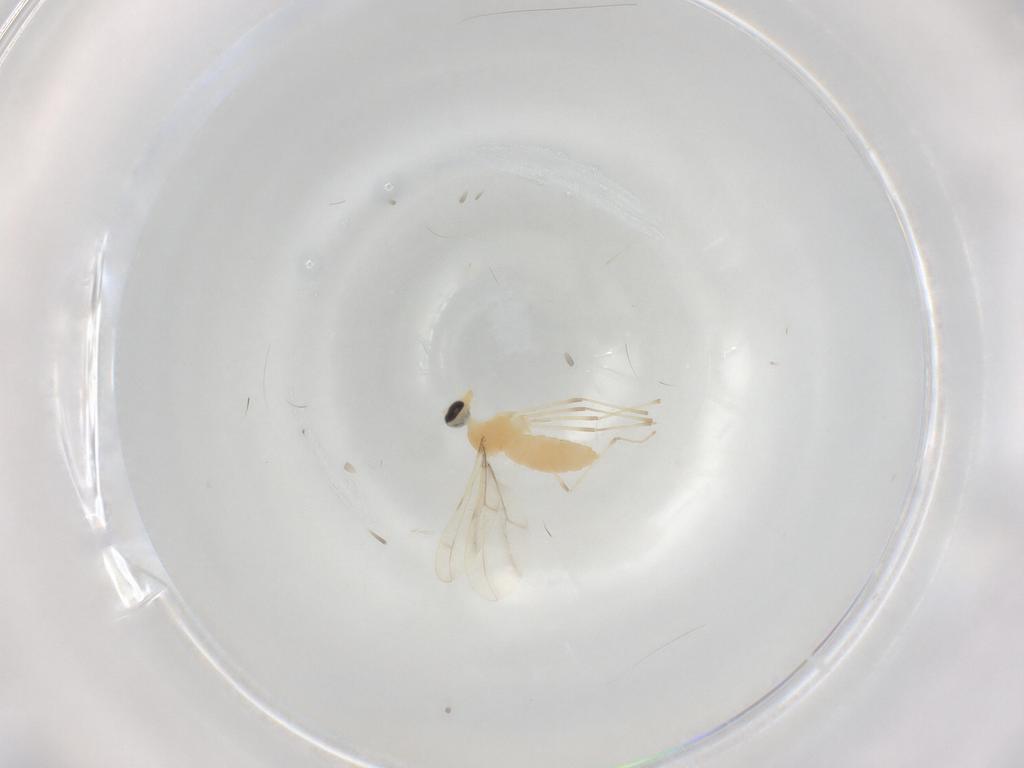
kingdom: Animalia
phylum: Arthropoda
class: Insecta
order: Diptera
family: Cecidomyiidae
